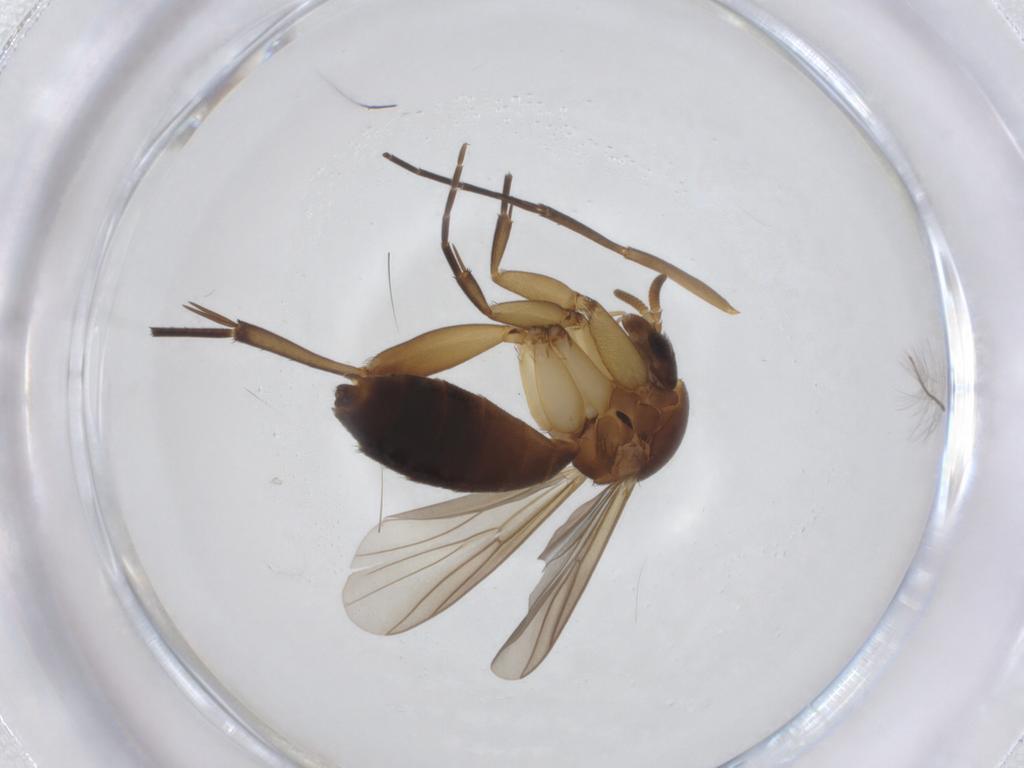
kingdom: Animalia
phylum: Arthropoda
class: Insecta
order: Diptera
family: Mycetophilidae
